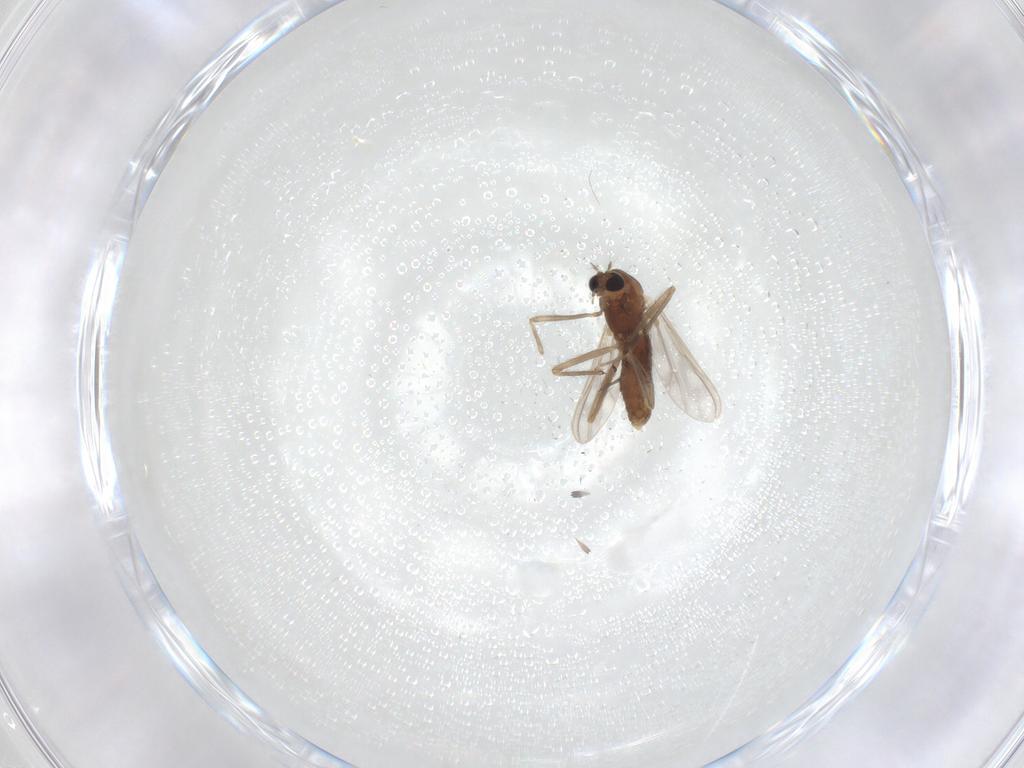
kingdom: Animalia
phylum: Arthropoda
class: Insecta
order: Diptera
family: Chironomidae
